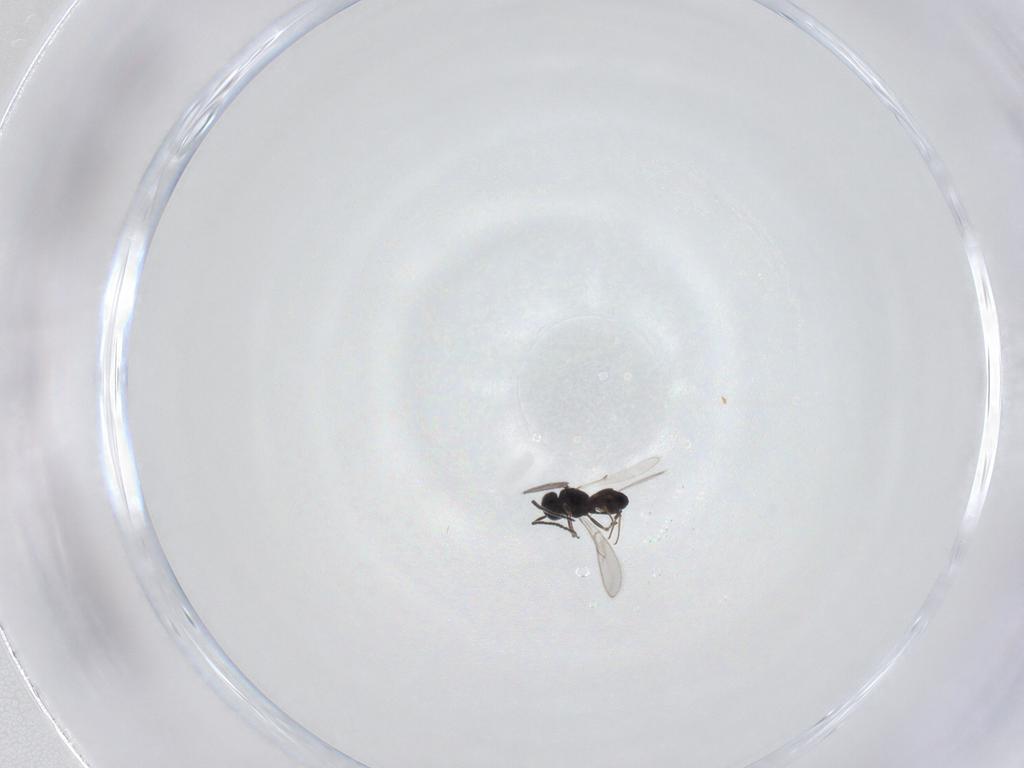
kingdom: Animalia
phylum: Arthropoda
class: Insecta
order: Hymenoptera
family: Scelionidae
